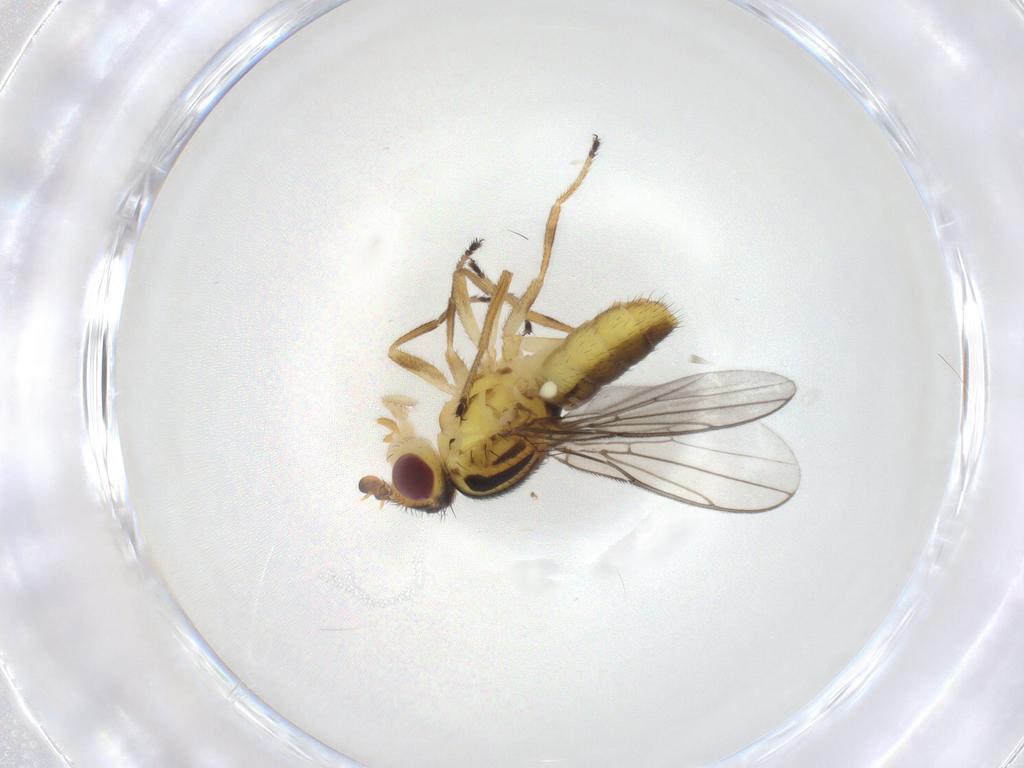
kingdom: Animalia
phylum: Arthropoda
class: Insecta
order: Diptera
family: Chloropidae
